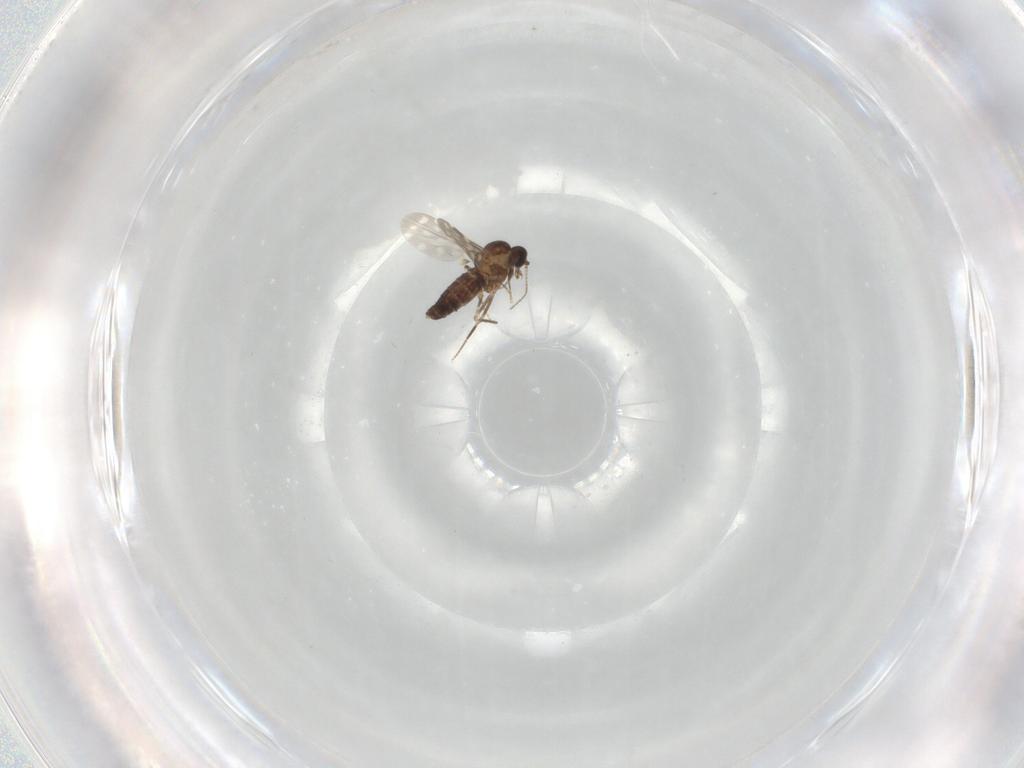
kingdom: Animalia
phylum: Arthropoda
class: Insecta
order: Diptera
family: Ceratopogonidae
